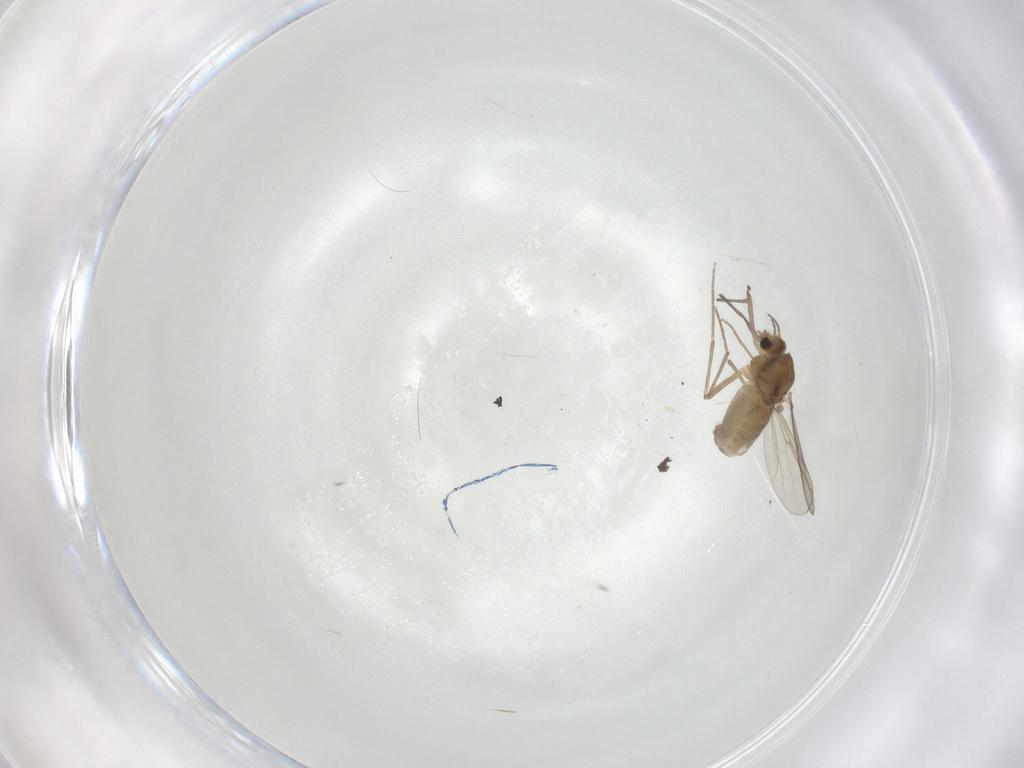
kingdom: Animalia
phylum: Arthropoda
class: Insecta
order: Diptera
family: Chironomidae
